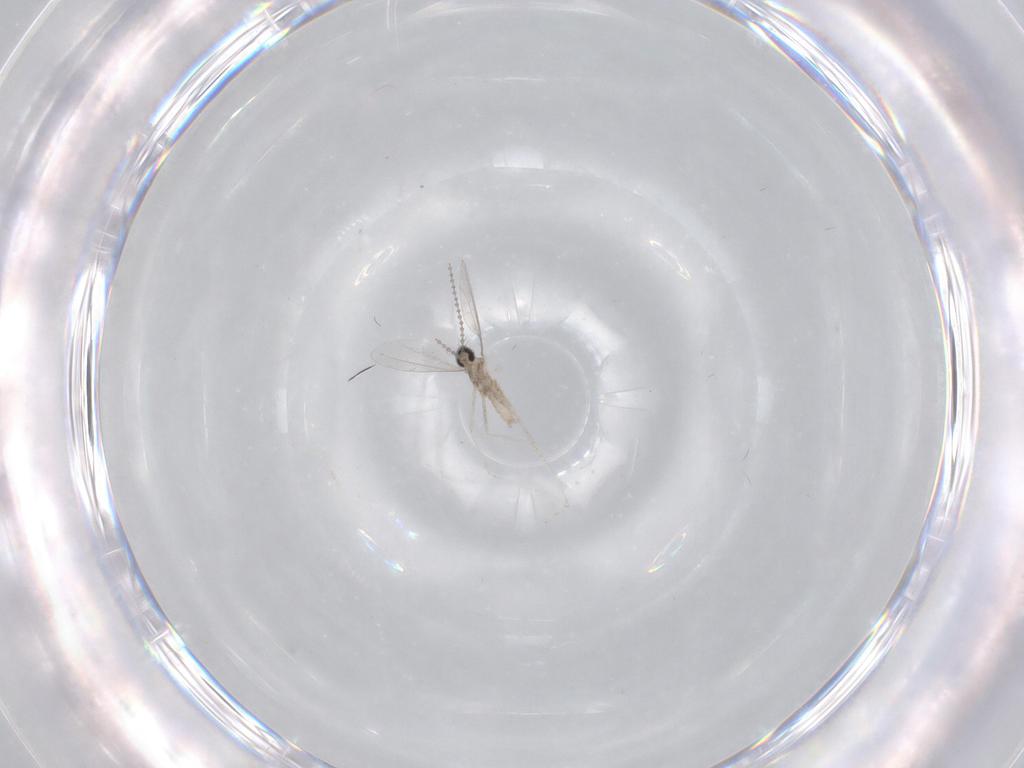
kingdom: Animalia
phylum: Arthropoda
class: Insecta
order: Diptera
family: Cecidomyiidae
